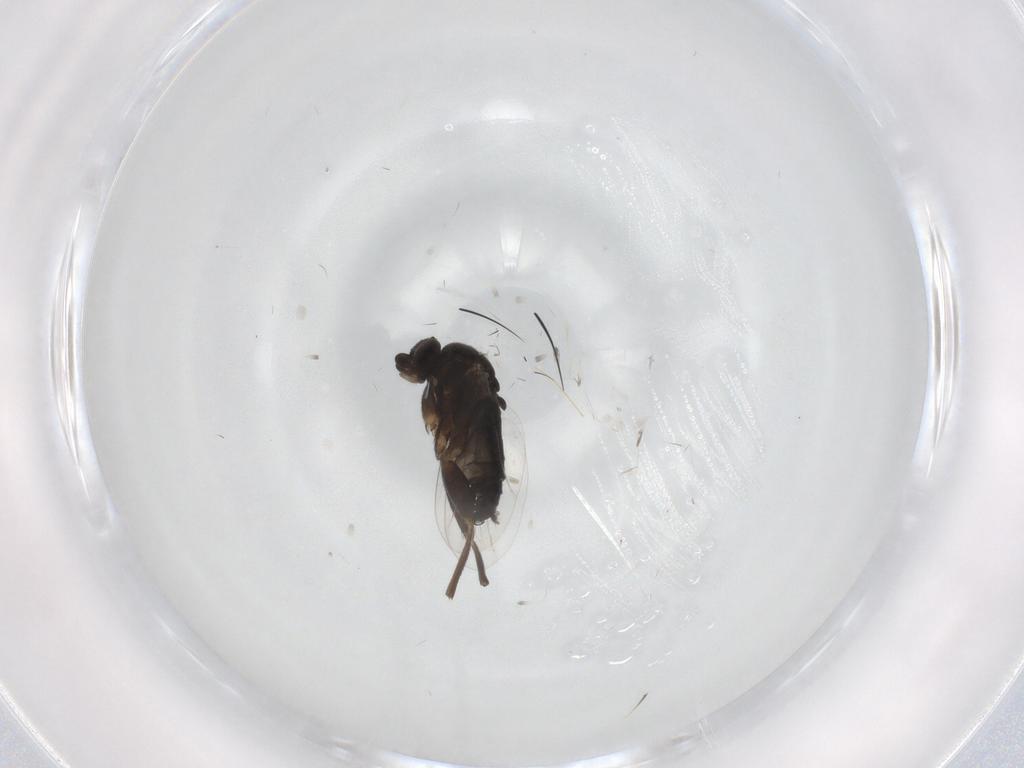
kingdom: Animalia
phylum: Arthropoda
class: Insecta
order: Diptera
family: Phoridae
